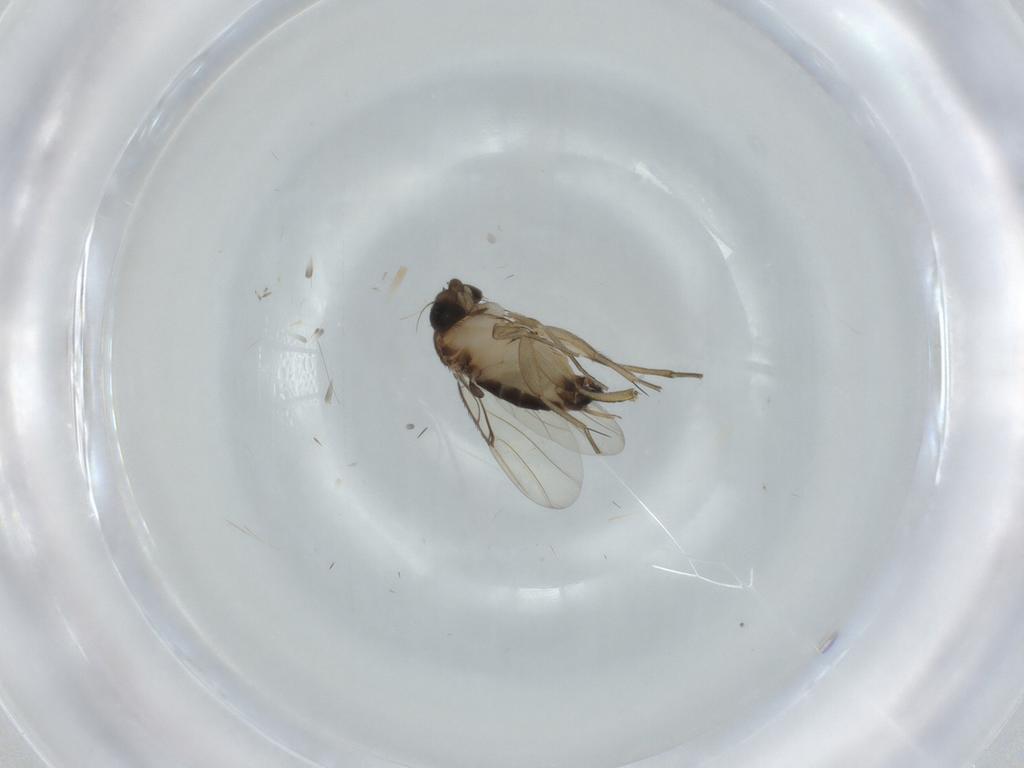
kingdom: Animalia
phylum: Arthropoda
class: Insecta
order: Diptera
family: Phoridae
